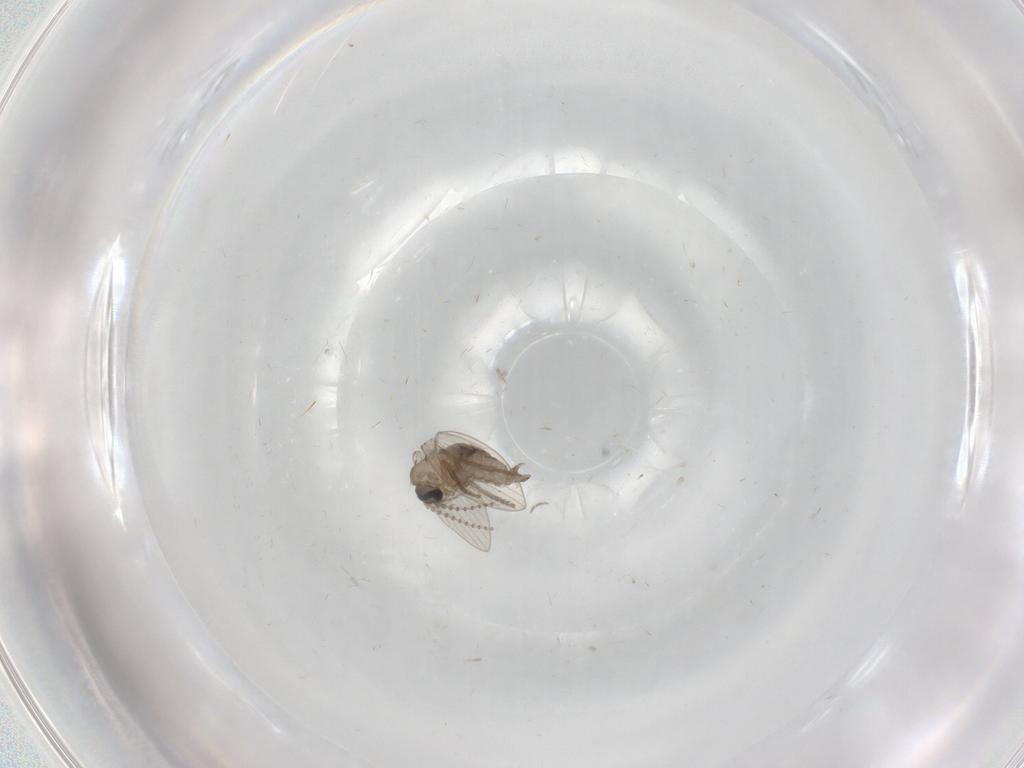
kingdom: Animalia
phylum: Arthropoda
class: Insecta
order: Diptera
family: Psychodidae
